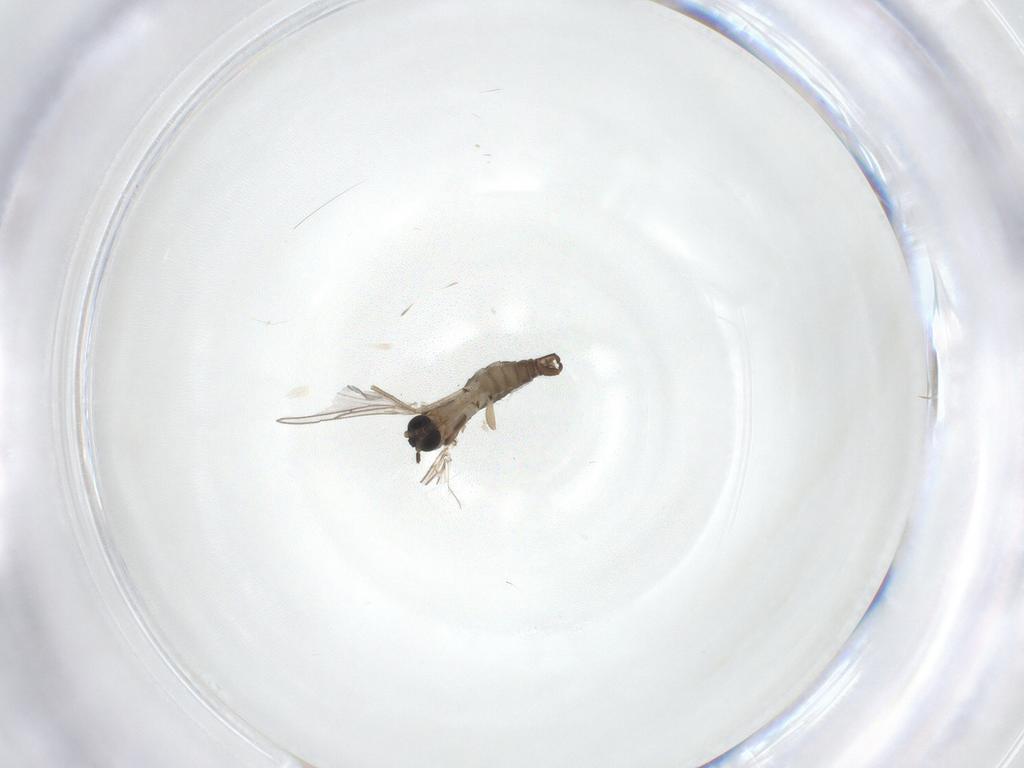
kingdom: Animalia
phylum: Arthropoda
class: Insecta
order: Diptera
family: Sciaridae
